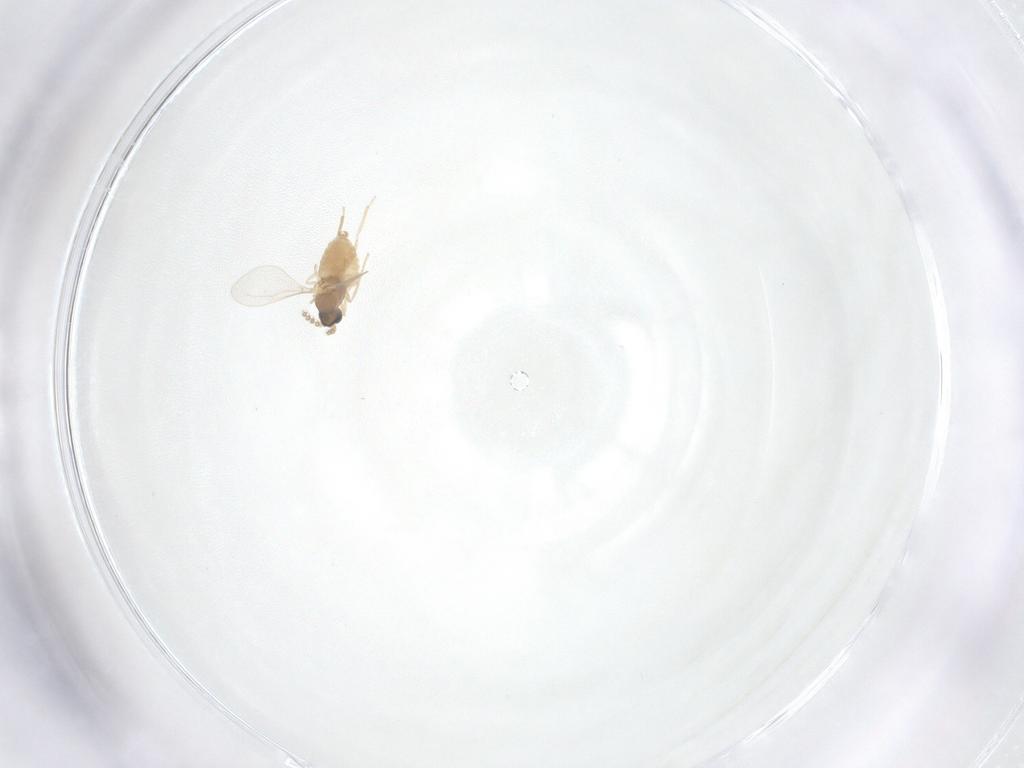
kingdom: Animalia
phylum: Arthropoda
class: Insecta
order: Diptera
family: Cecidomyiidae
